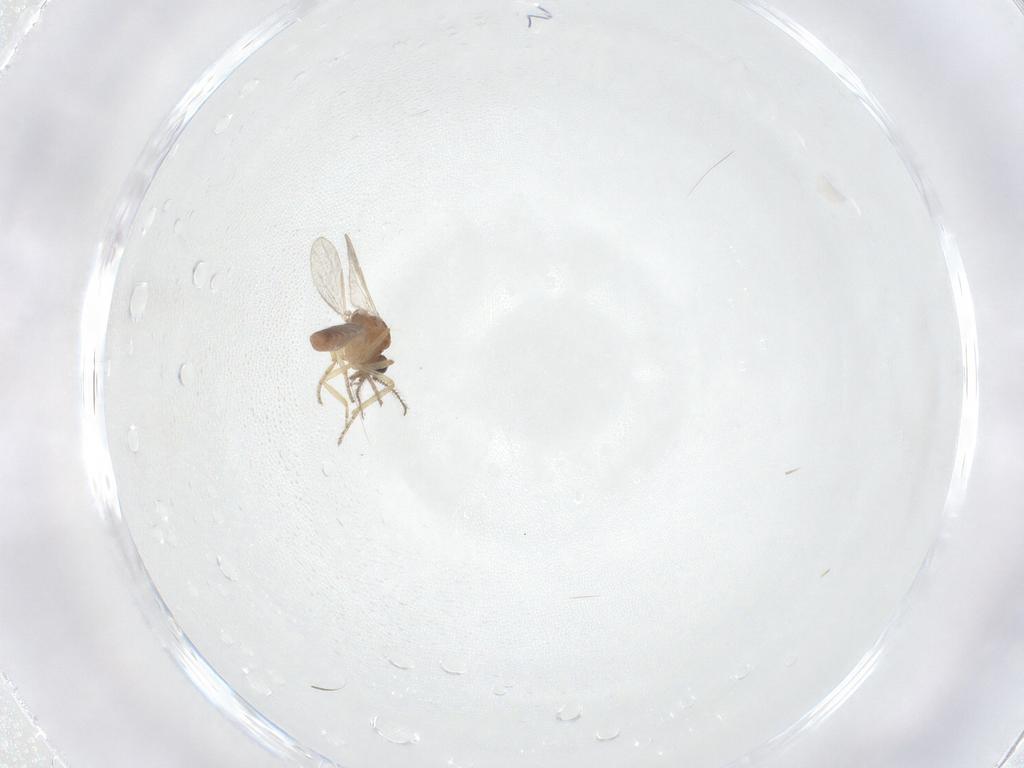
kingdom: Animalia
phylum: Arthropoda
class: Insecta
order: Diptera
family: Ceratopogonidae
